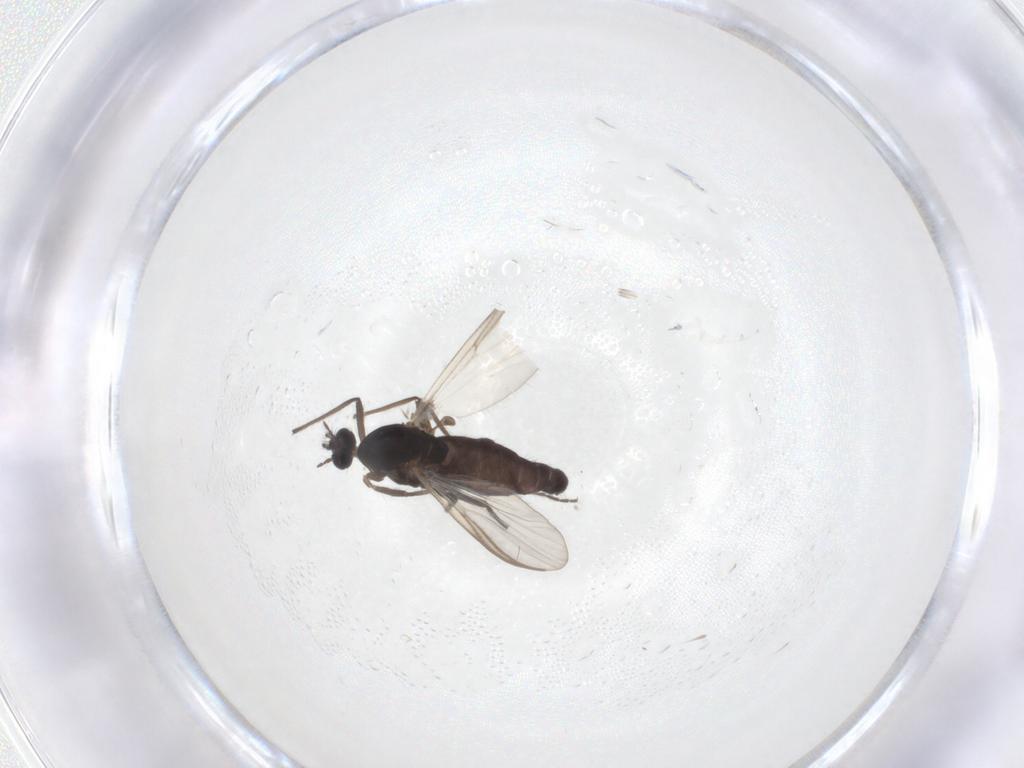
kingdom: Animalia
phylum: Arthropoda
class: Insecta
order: Diptera
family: Chironomidae
